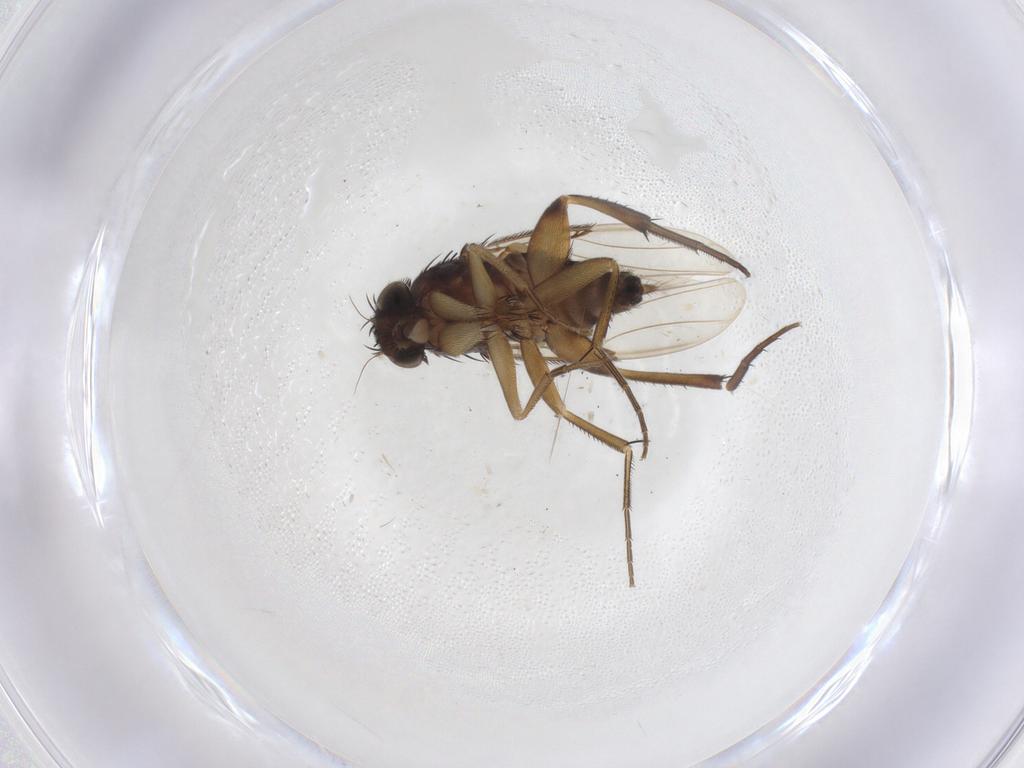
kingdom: Animalia
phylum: Arthropoda
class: Insecta
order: Diptera
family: Phoridae
